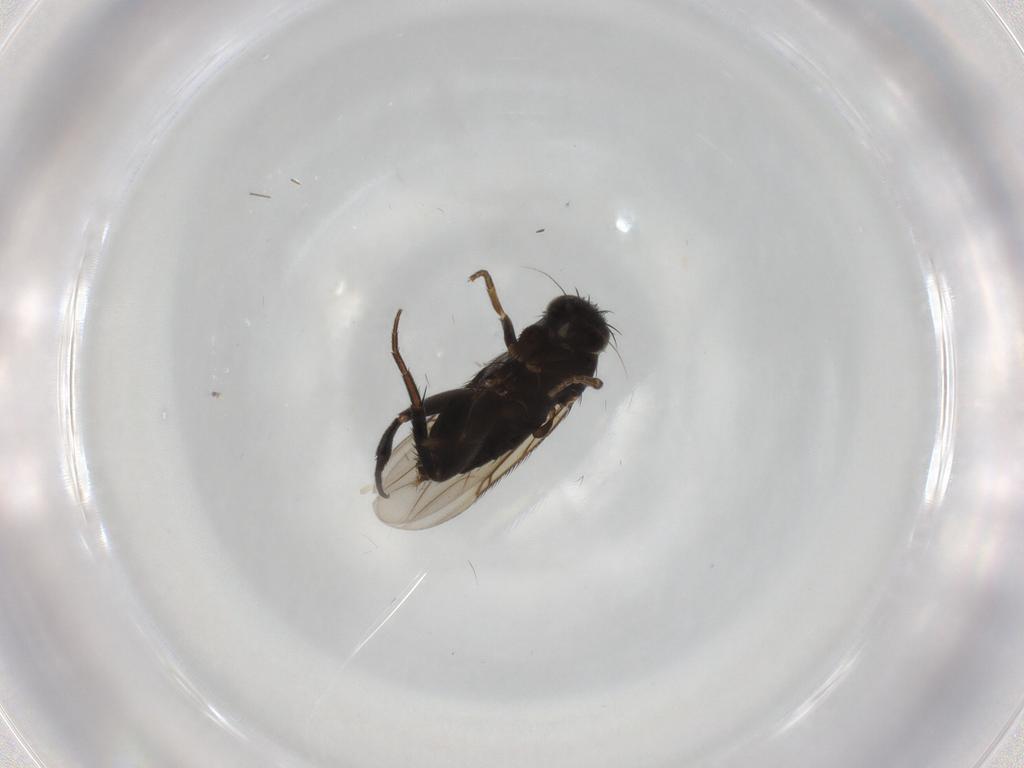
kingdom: Animalia
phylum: Arthropoda
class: Insecta
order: Diptera
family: Phoridae
